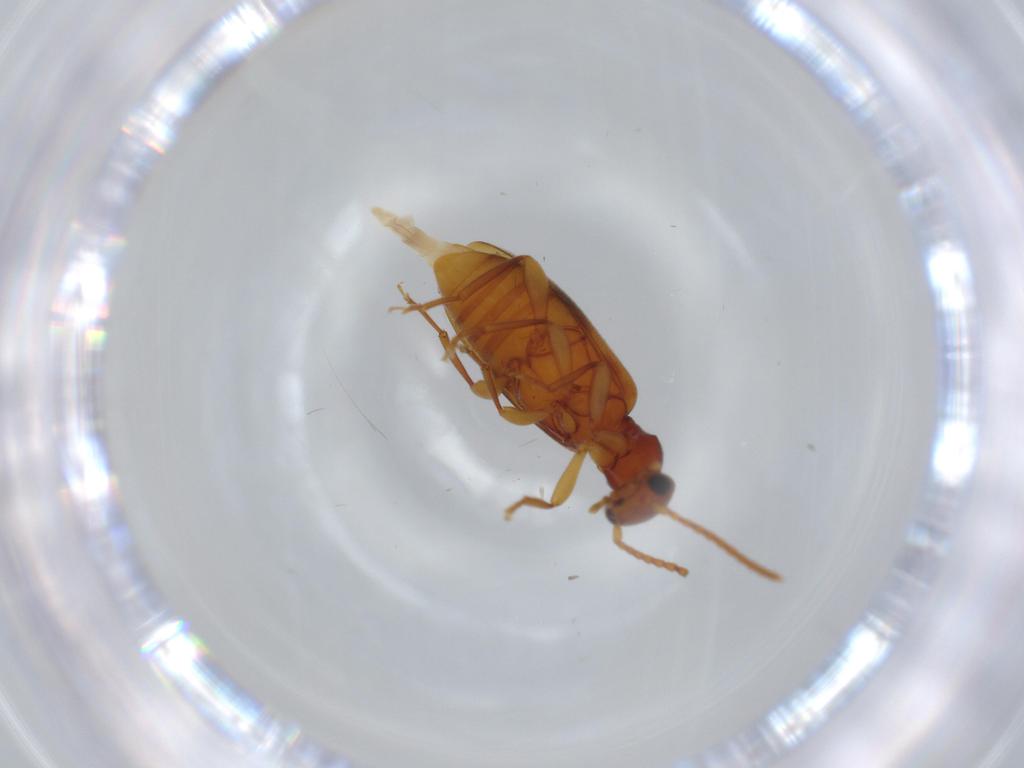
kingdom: Animalia
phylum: Arthropoda
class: Insecta
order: Coleoptera
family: Anthicidae
